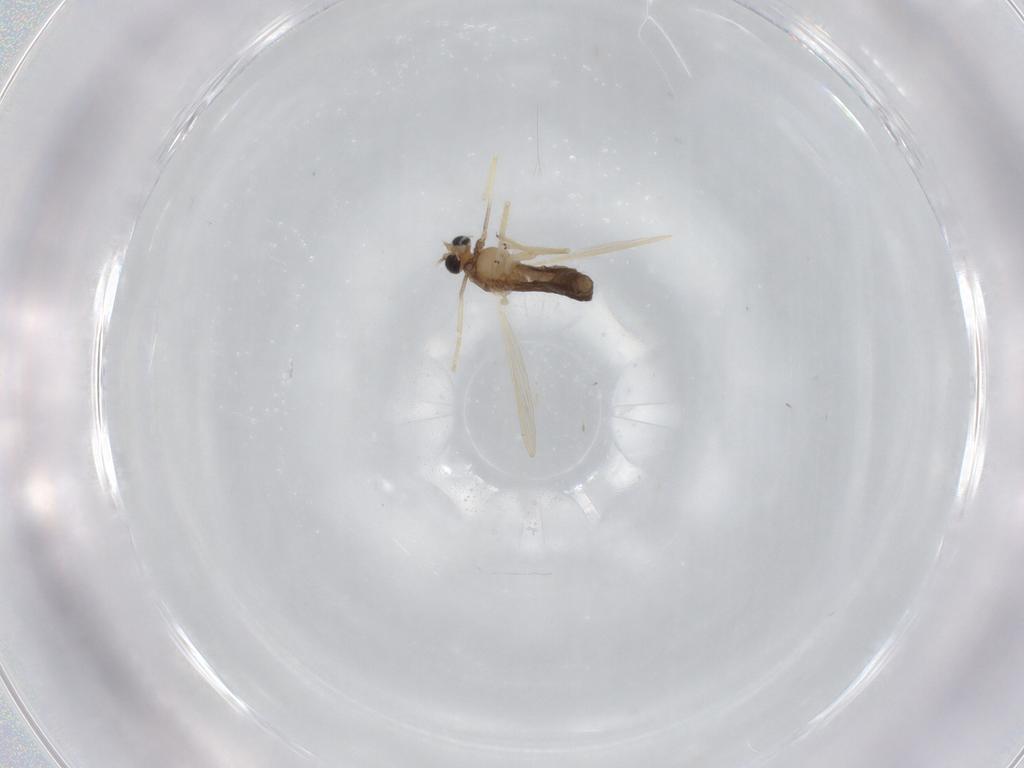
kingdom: Animalia
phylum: Arthropoda
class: Insecta
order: Diptera
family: Chironomidae
